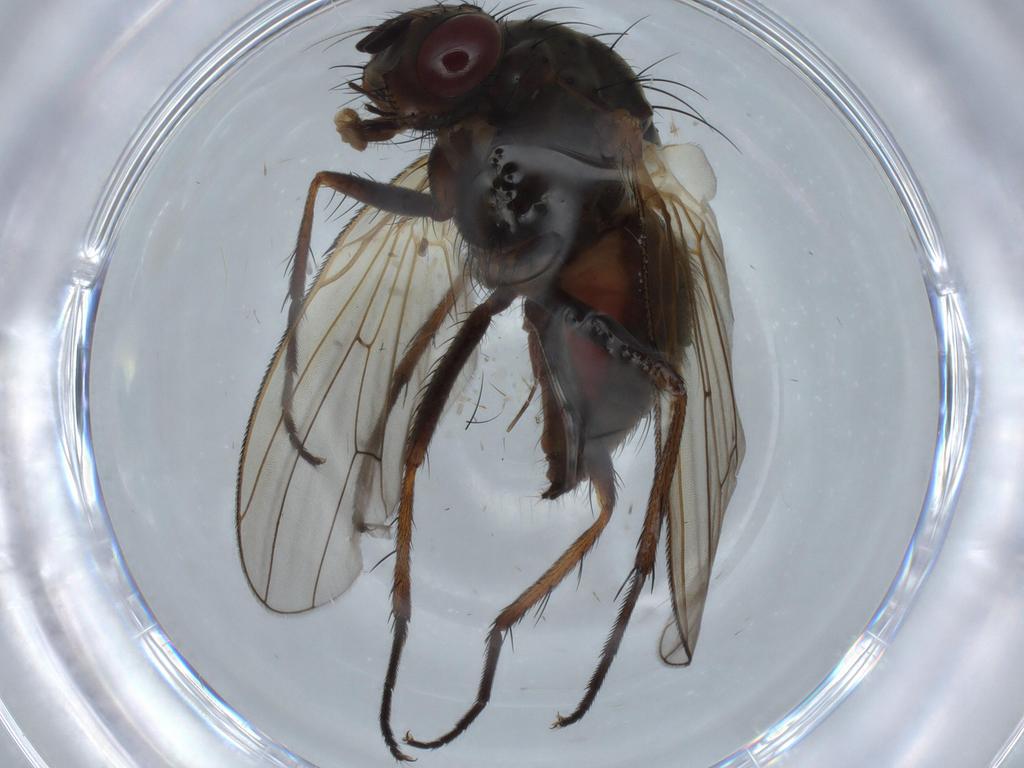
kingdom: Animalia
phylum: Arthropoda
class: Insecta
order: Diptera
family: Anthomyiidae
